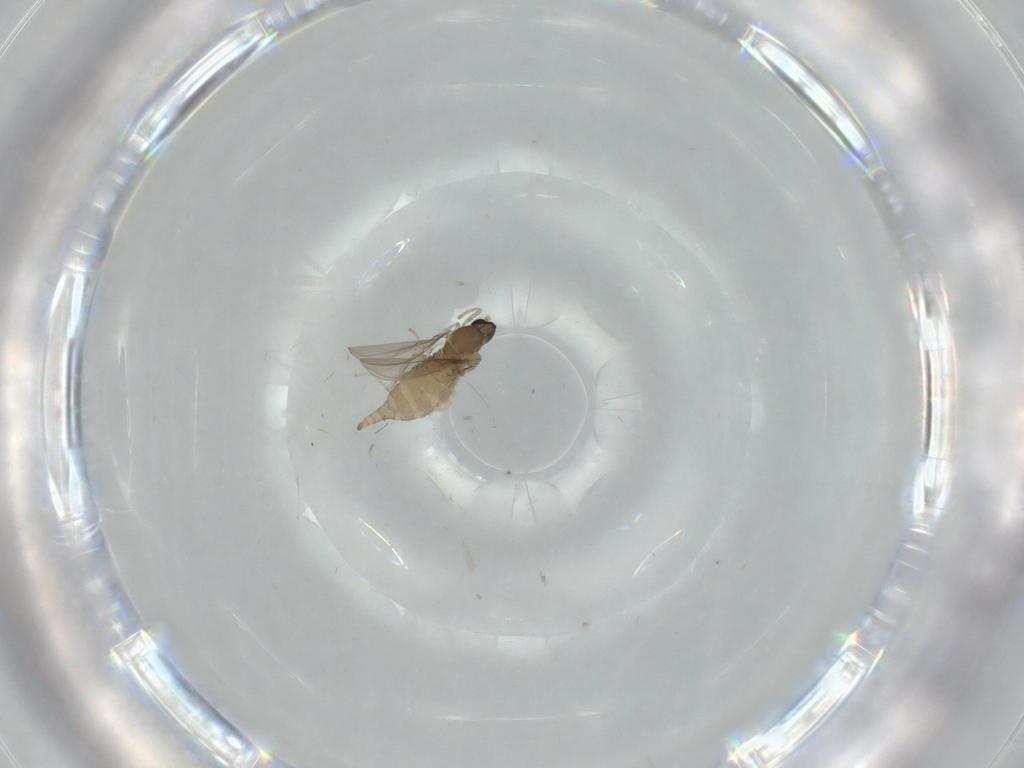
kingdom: Animalia
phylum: Arthropoda
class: Insecta
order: Diptera
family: Cecidomyiidae
